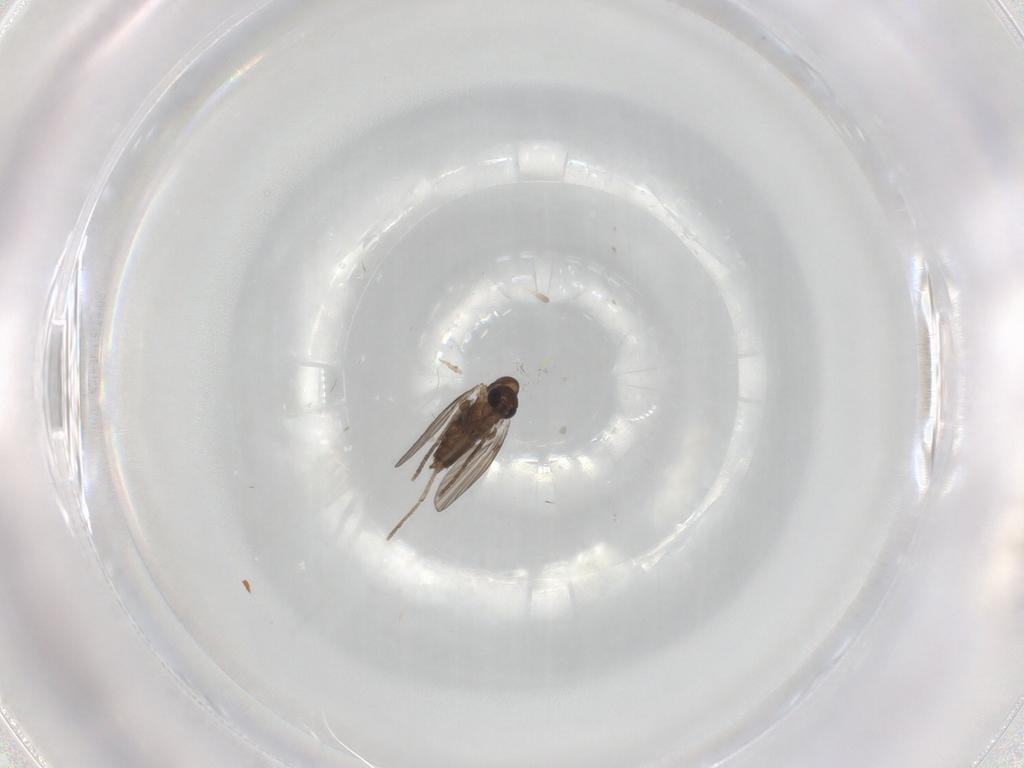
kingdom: Animalia
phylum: Arthropoda
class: Insecta
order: Diptera
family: Psychodidae
